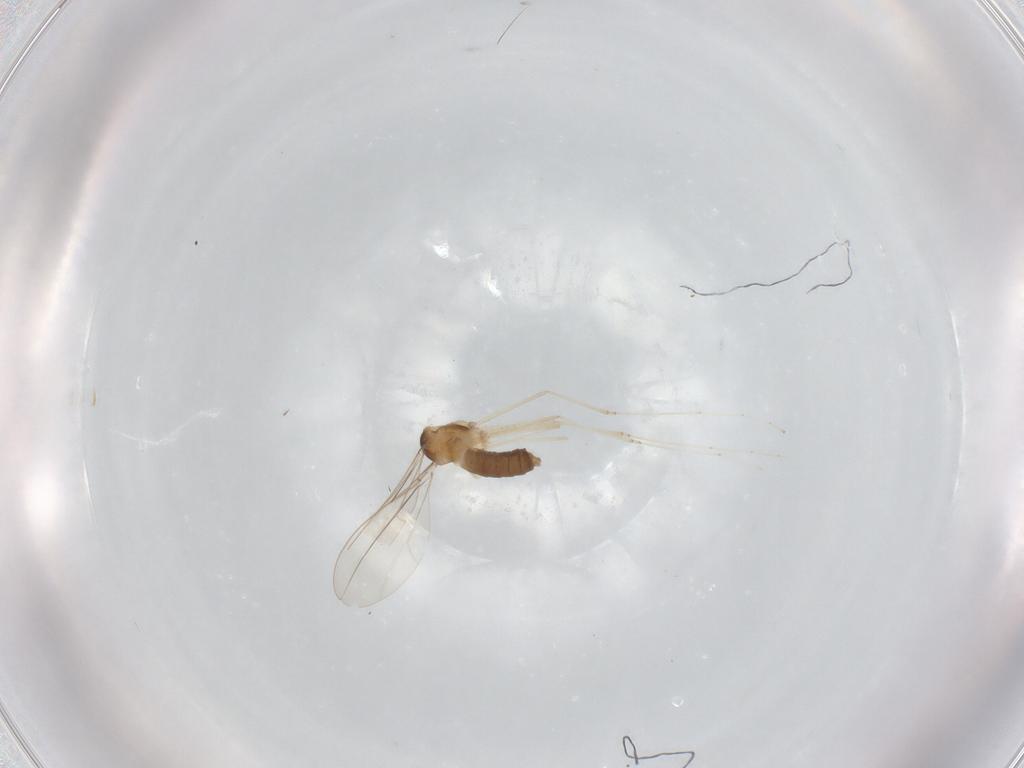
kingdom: Animalia
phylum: Arthropoda
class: Insecta
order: Diptera
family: Cecidomyiidae
